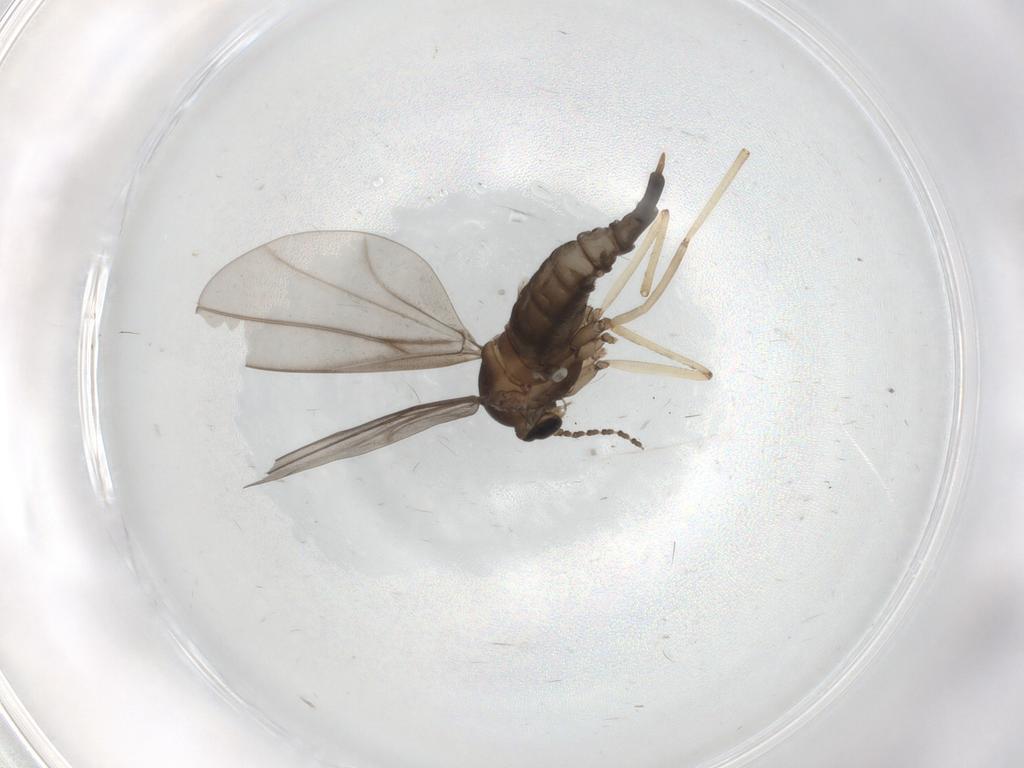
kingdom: Animalia
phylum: Arthropoda
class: Insecta
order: Diptera
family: Cecidomyiidae
